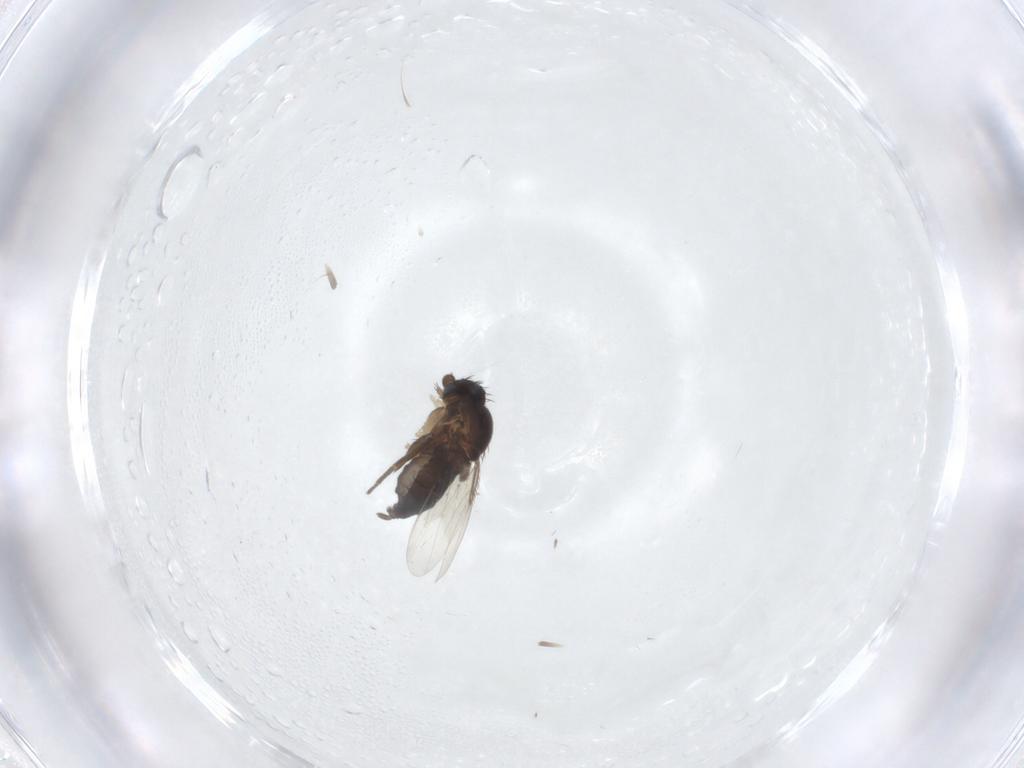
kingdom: Animalia
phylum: Arthropoda
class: Insecta
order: Diptera
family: Phoridae
